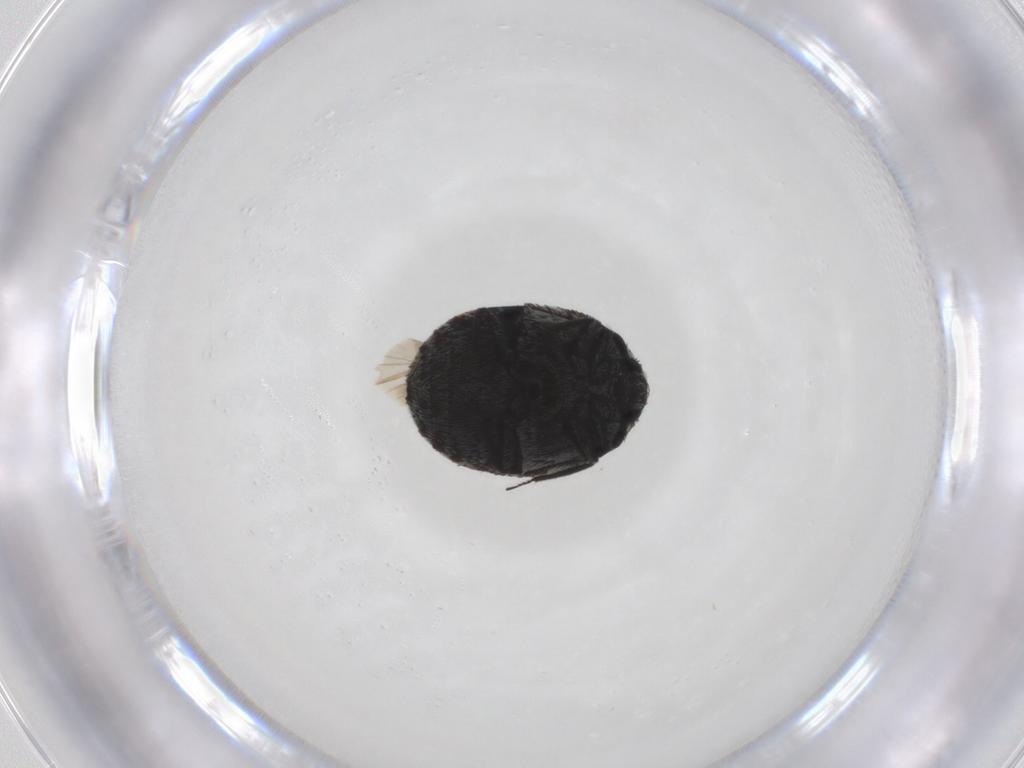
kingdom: Animalia
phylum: Arthropoda
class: Insecta
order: Coleoptera
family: Dermestidae
